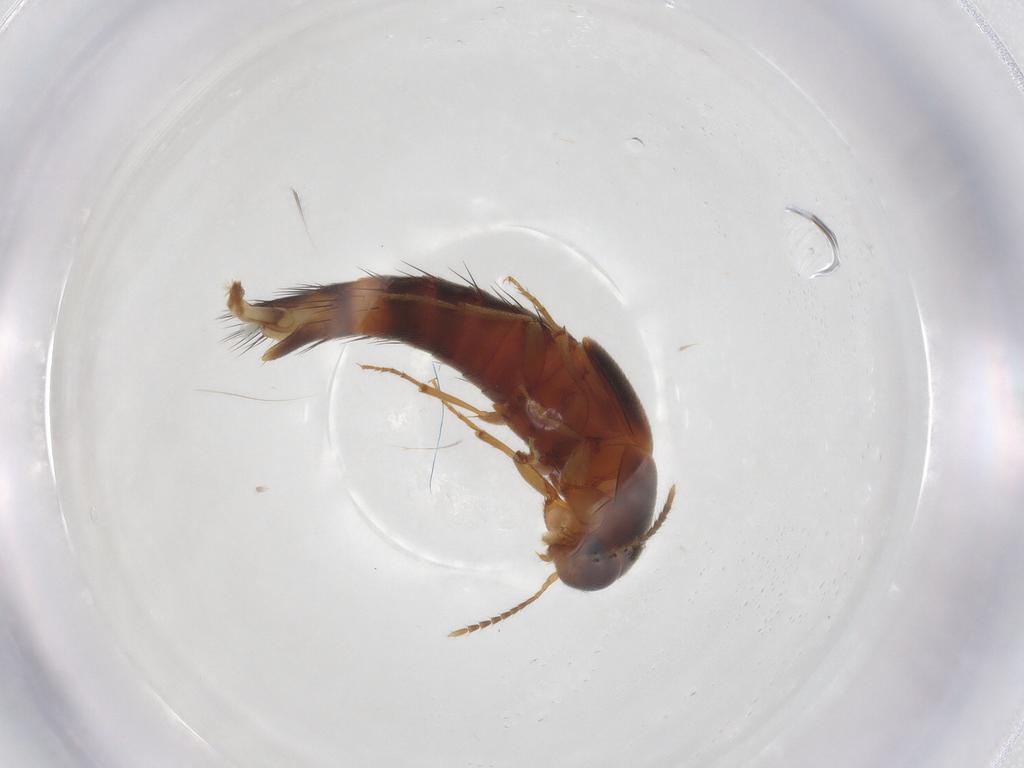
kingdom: Animalia
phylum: Arthropoda
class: Insecta
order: Coleoptera
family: Staphylinidae
